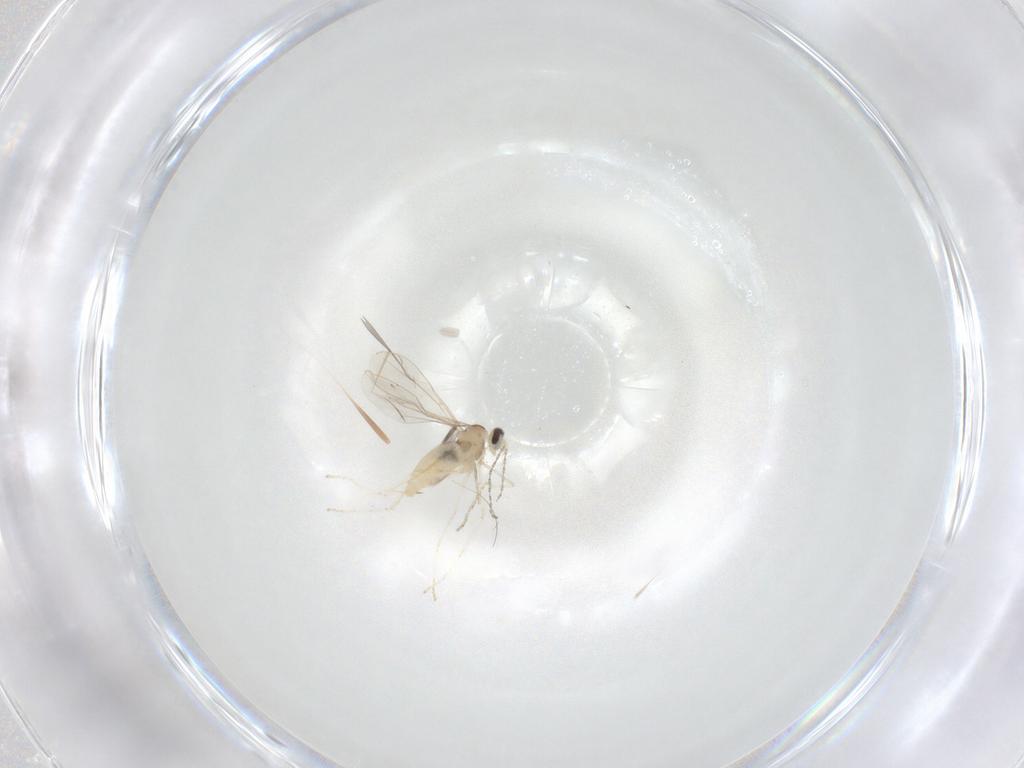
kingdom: Animalia
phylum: Arthropoda
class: Insecta
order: Diptera
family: Cecidomyiidae
